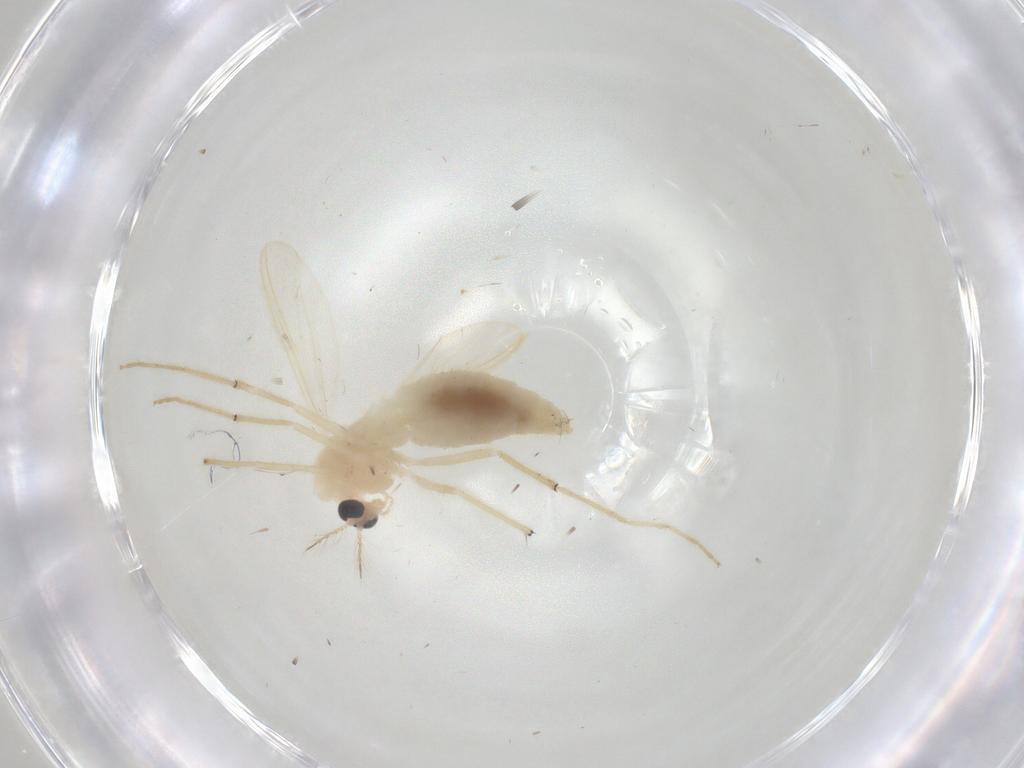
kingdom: Animalia
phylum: Arthropoda
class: Insecta
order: Diptera
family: Chironomidae
